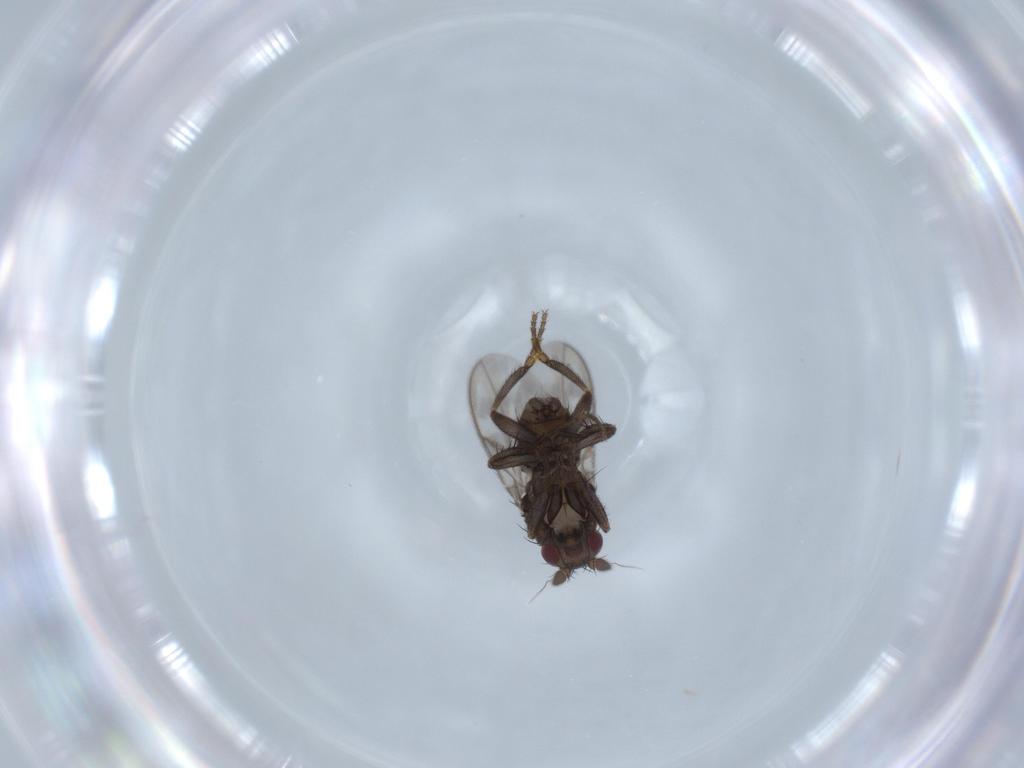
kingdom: Animalia
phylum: Arthropoda
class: Insecta
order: Diptera
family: Sphaeroceridae
